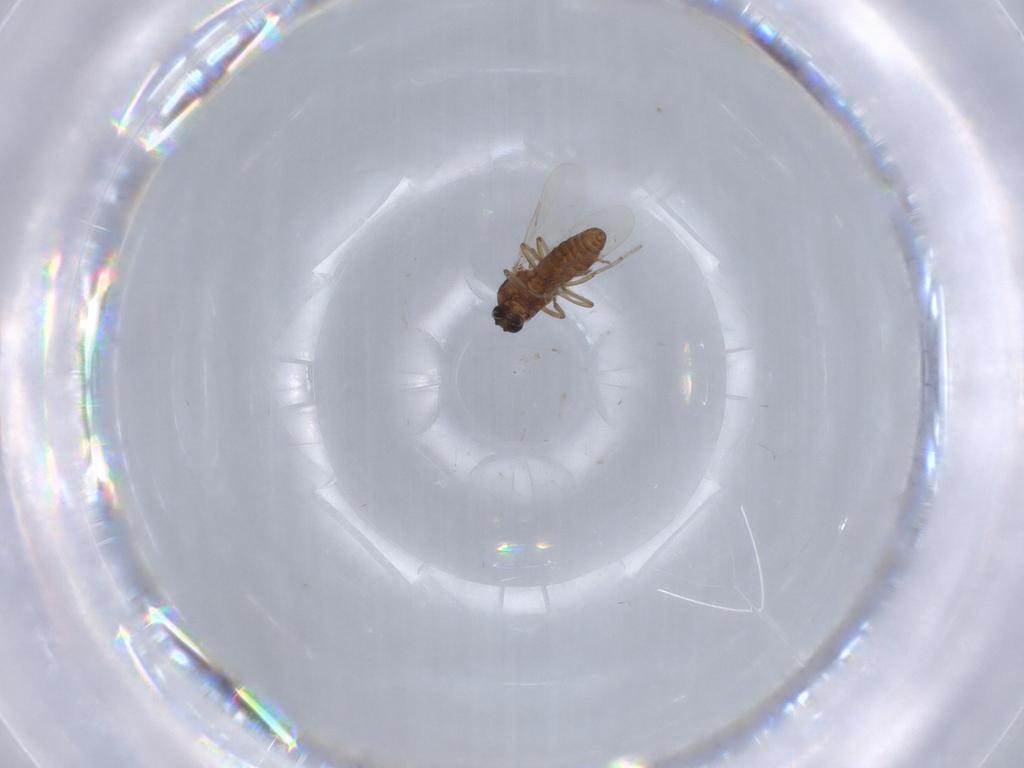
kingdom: Animalia
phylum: Arthropoda
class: Insecta
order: Diptera
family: Ceratopogonidae
